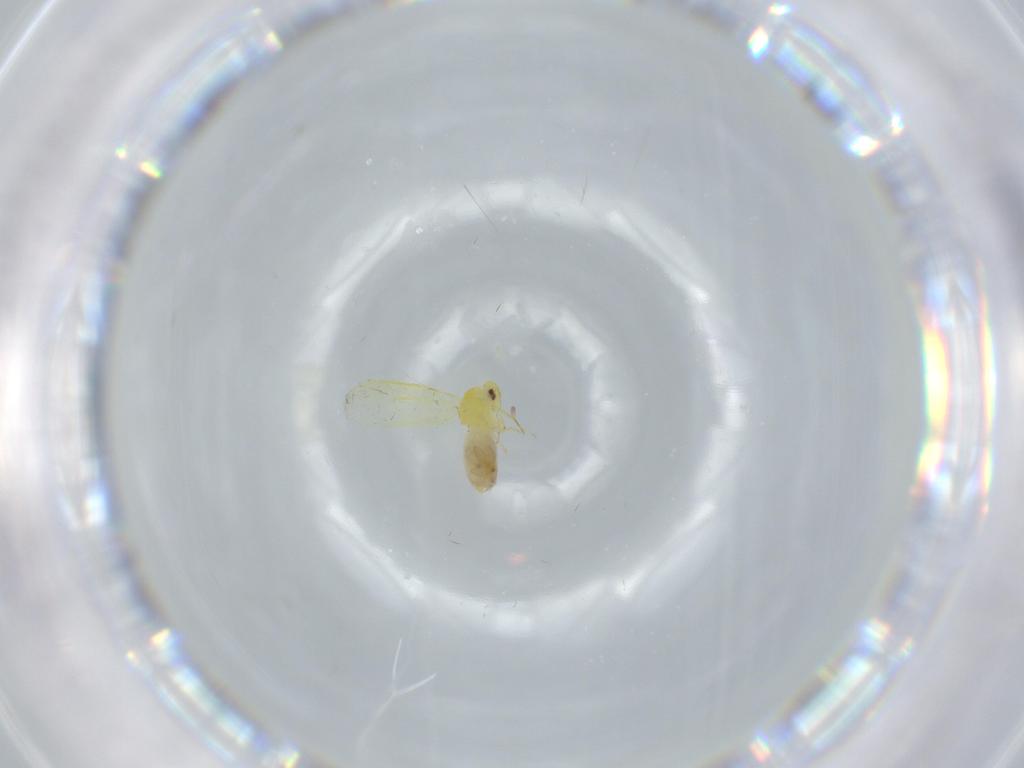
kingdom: Animalia
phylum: Arthropoda
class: Insecta
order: Hemiptera
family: Aleyrodidae
